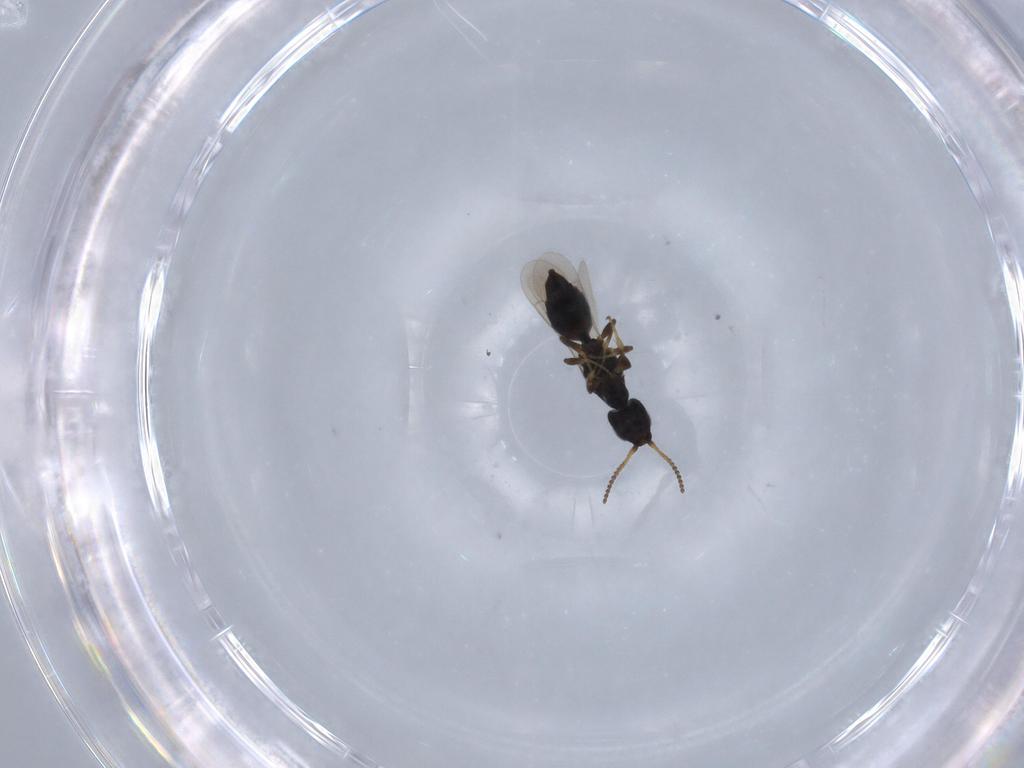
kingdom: Animalia
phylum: Arthropoda
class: Insecta
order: Hymenoptera
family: Bethylidae
